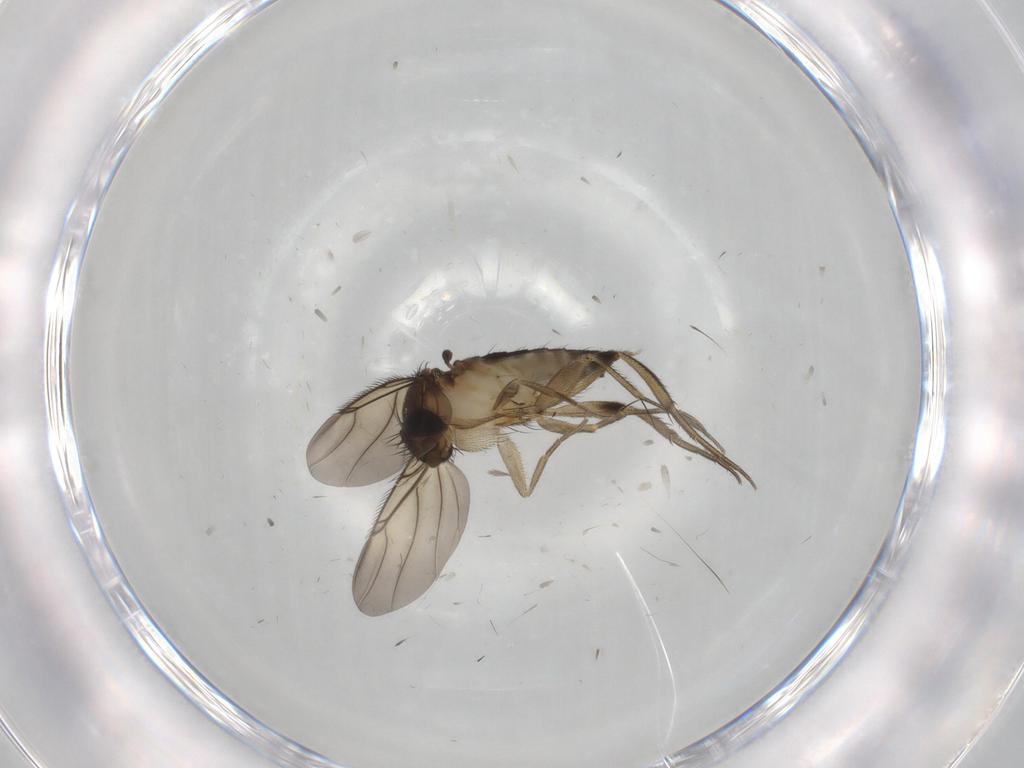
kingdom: Animalia
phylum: Arthropoda
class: Insecta
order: Diptera
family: Phoridae
